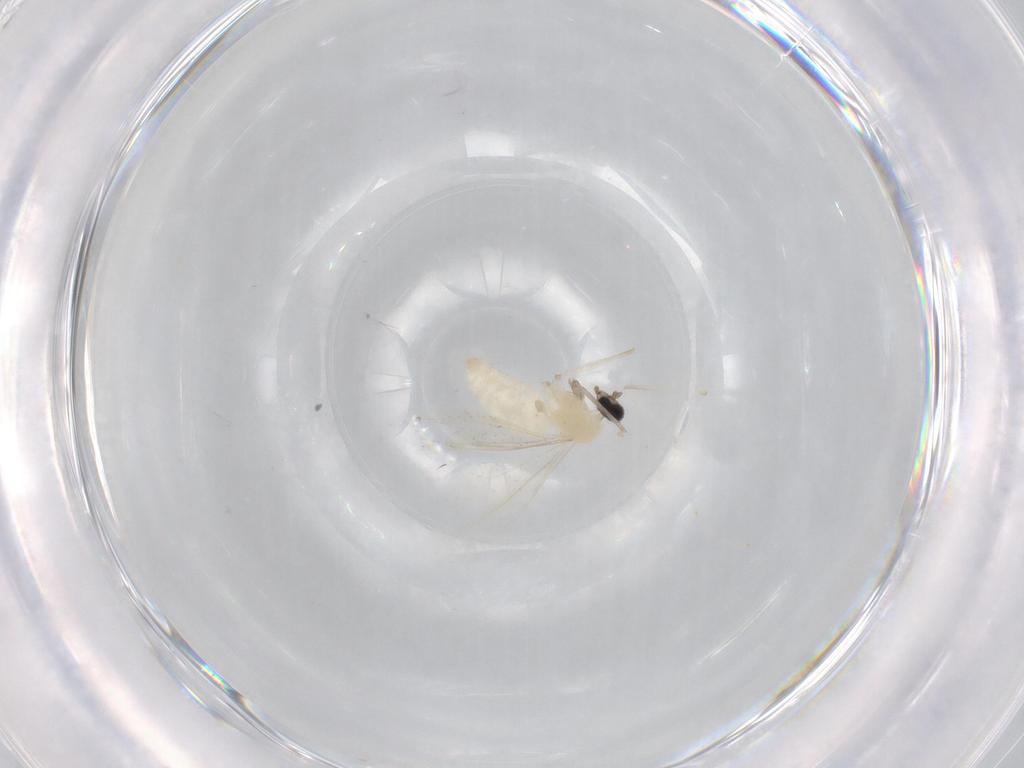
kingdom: Animalia
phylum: Arthropoda
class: Insecta
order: Diptera
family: Cecidomyiidae
